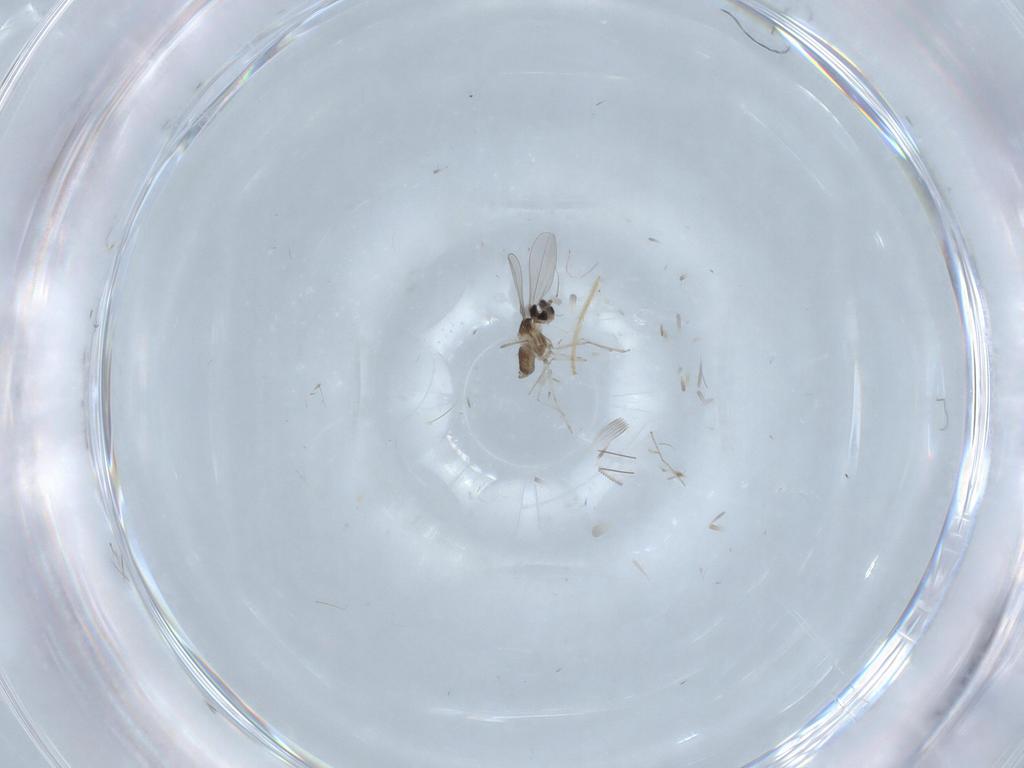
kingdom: Animalia
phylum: Arthropoda
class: Insecta
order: Diptera
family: Cecidomyiidae
